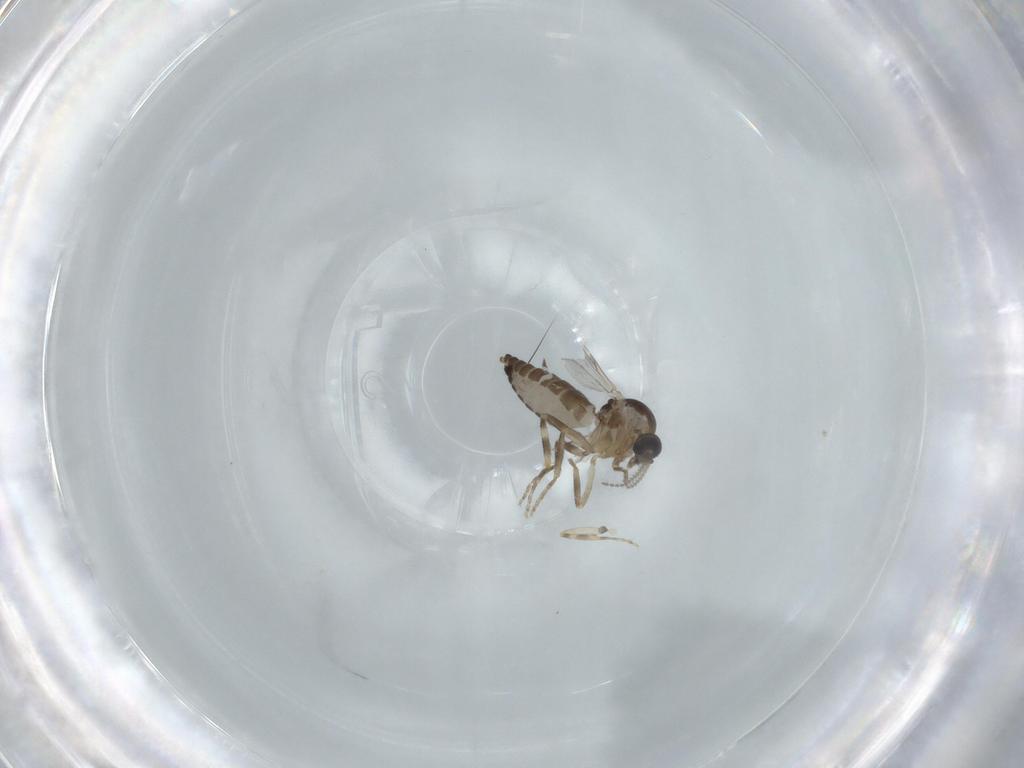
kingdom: Animalia
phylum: Arthropoda
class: Insecta
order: Diptera
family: Ceratopogonidae
